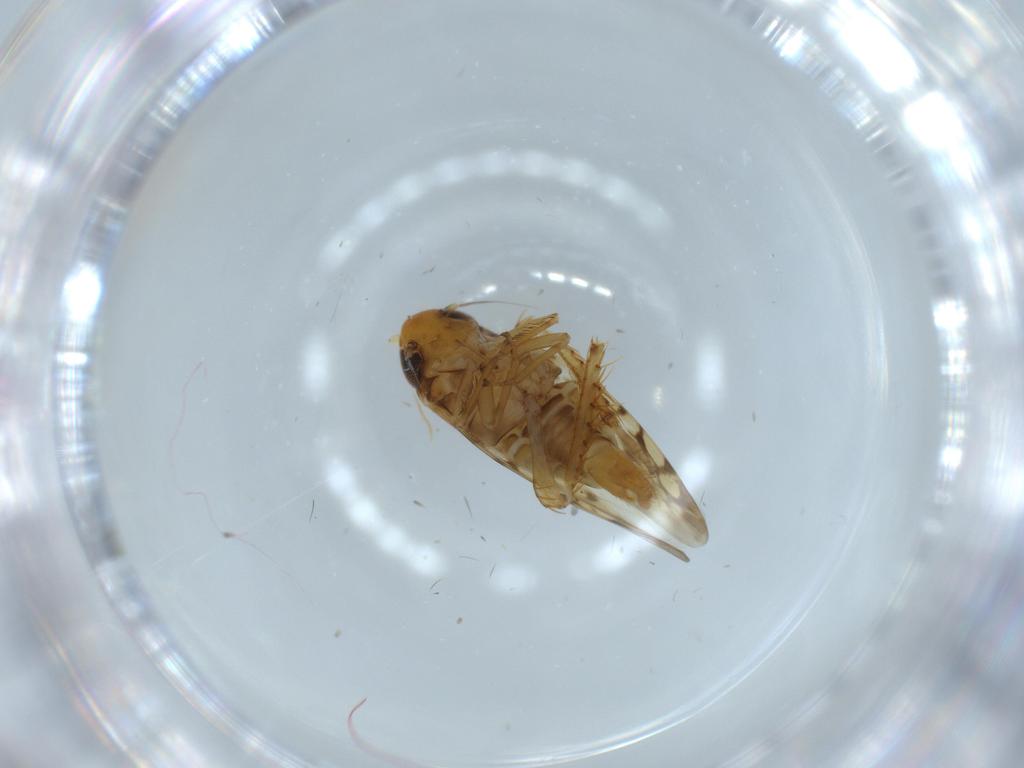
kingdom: Animalia
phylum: Arthropoda
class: Insecta
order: Hemiptera
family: Cicadellidae
